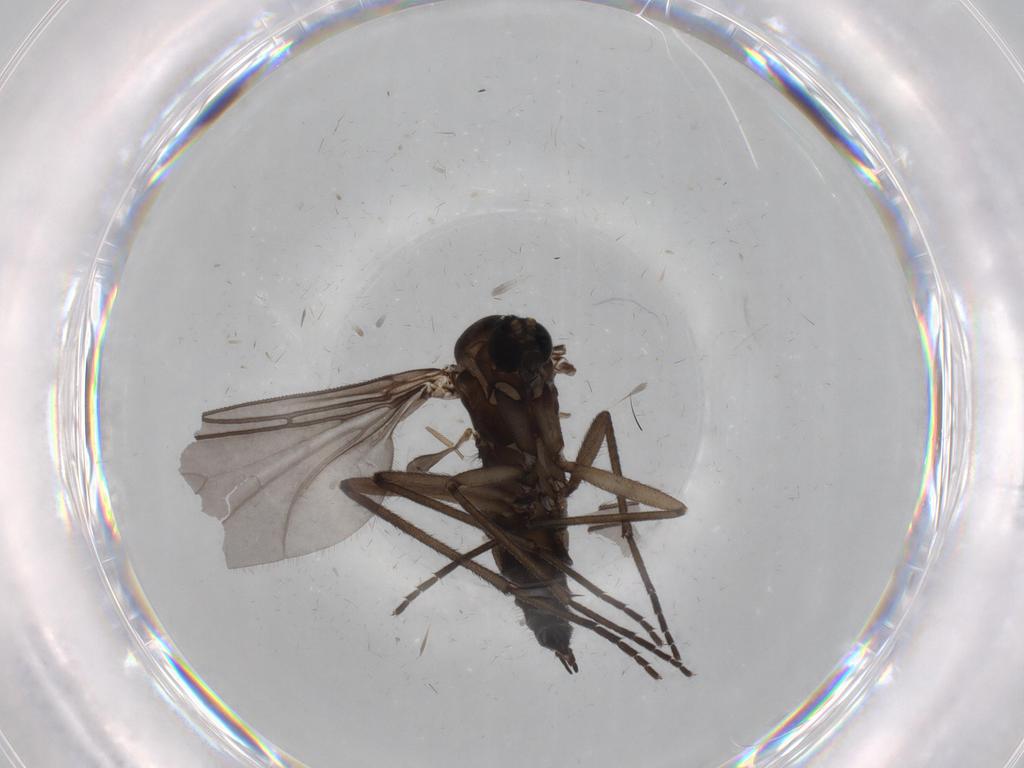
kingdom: Animalia
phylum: Arthropoda
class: Insecta
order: Diptera
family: Sciaridae
